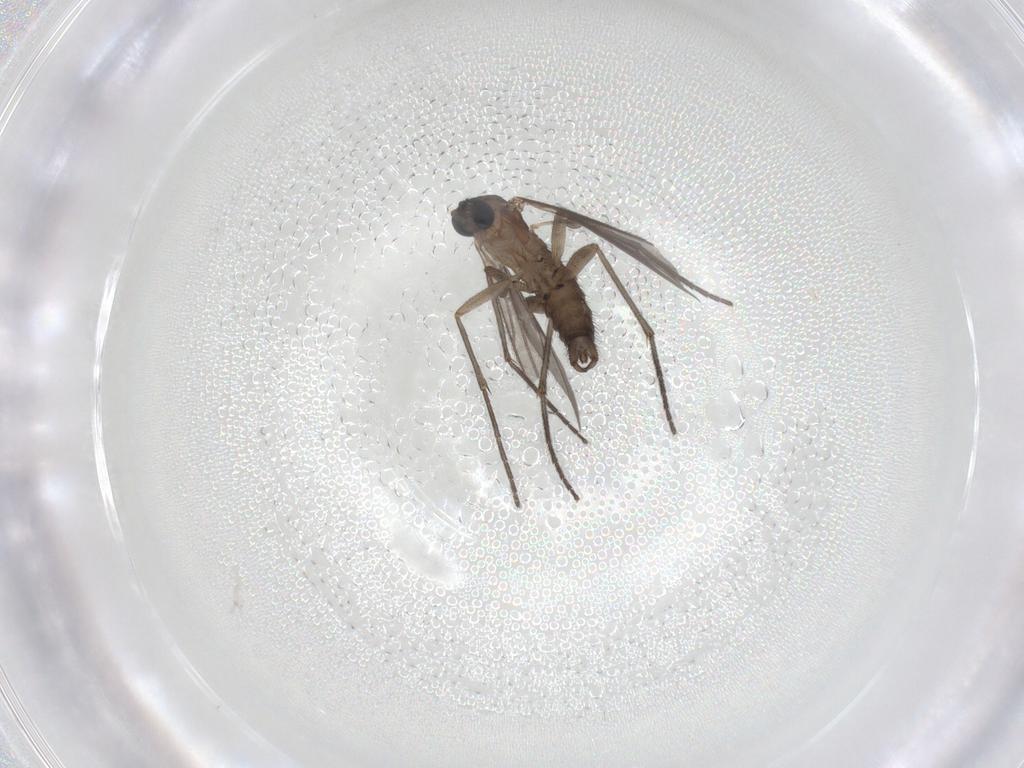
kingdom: Animalia
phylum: Arthropoda
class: Insecta
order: Diptera
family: Sciaridae
